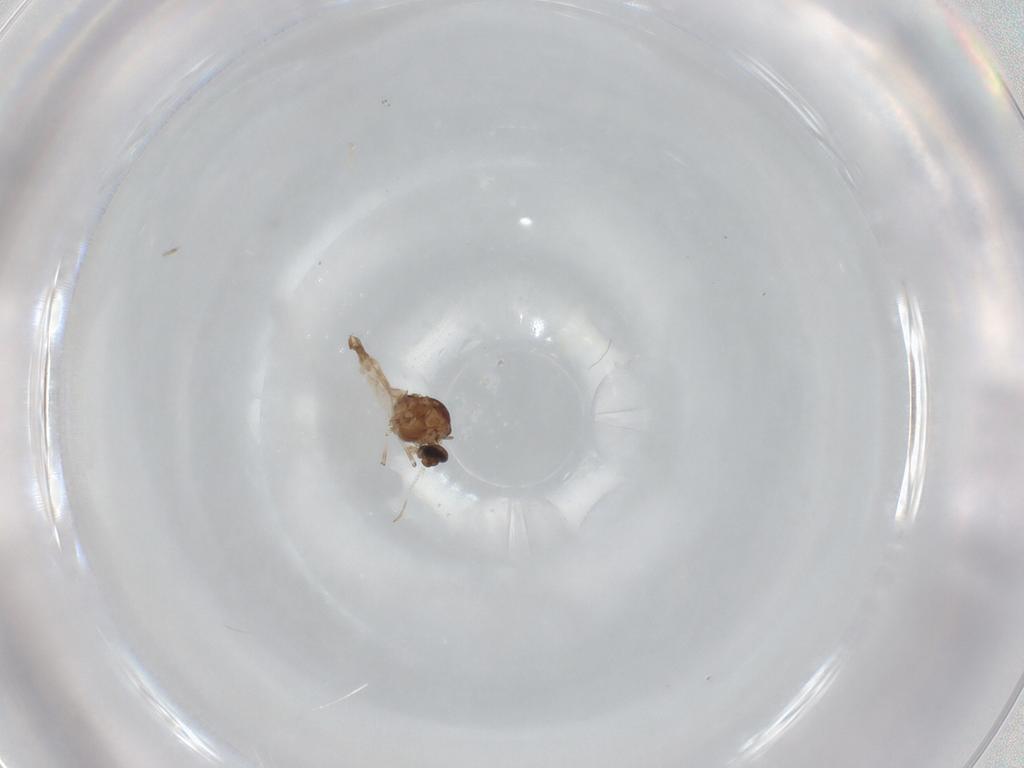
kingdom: Animalia
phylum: Arthropoda
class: Insecta
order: Diptera
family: Ceratopogonidae
